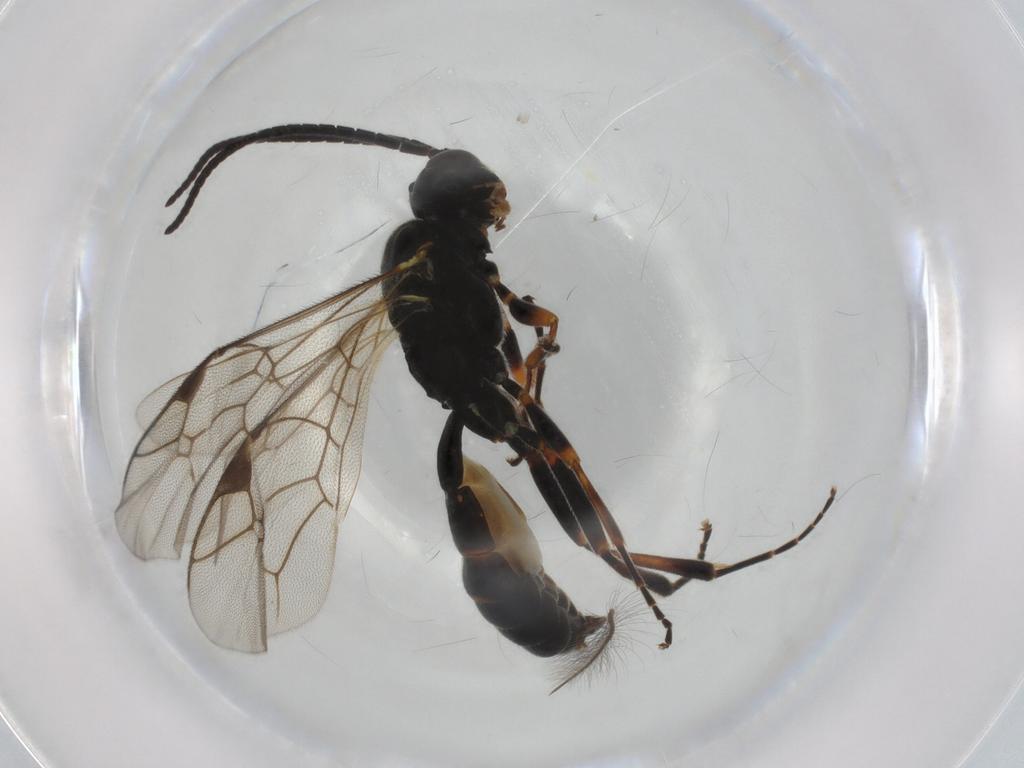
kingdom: Animalia
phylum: Arthropoda
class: Insecta
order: Hymenoptera
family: Ichneumonidae
